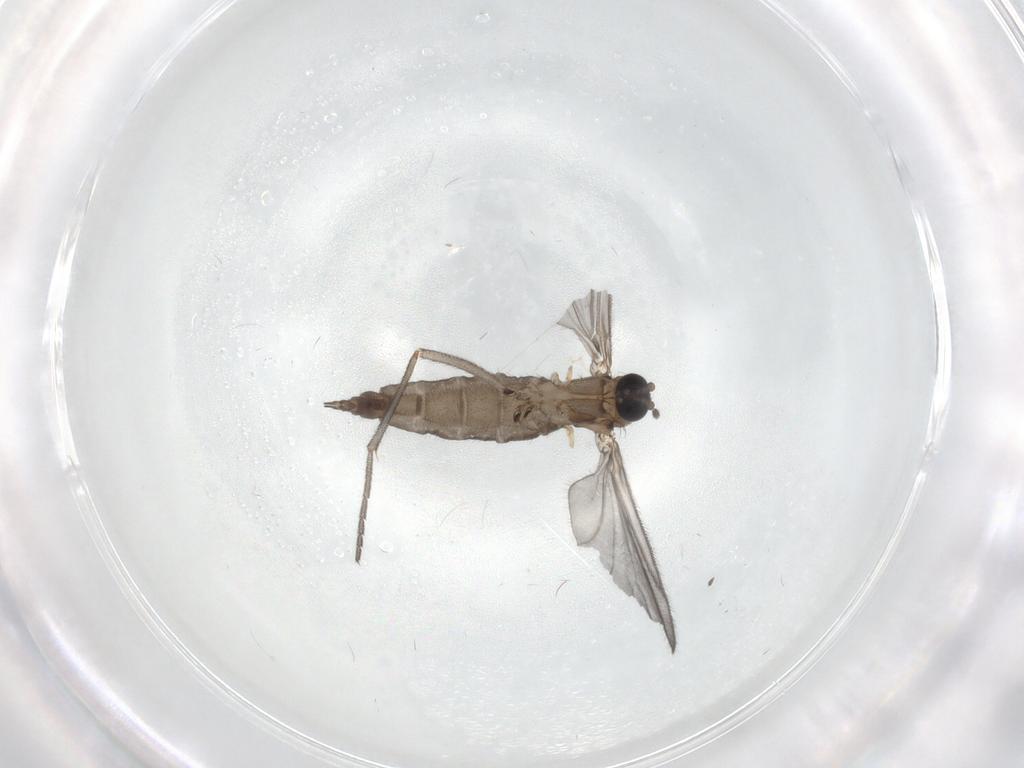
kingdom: Animalia
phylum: Arthropoda
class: Insecta
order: Diptera
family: Sciaridae
